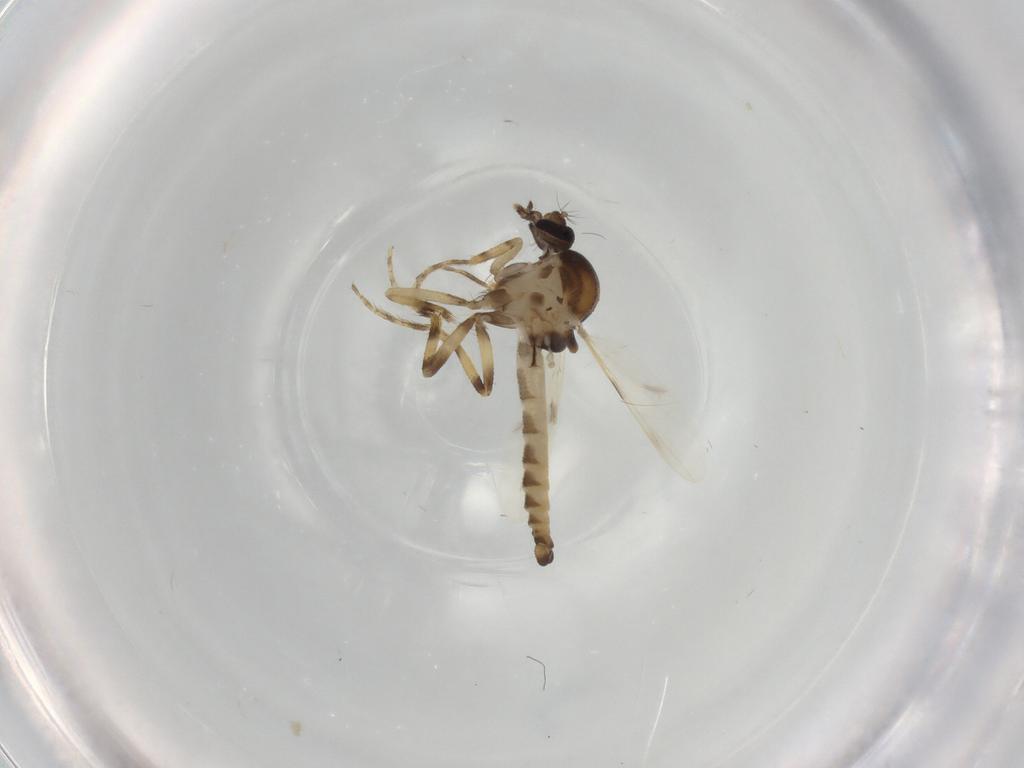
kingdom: Animalia
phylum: Arthropoda
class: Insecta
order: Diptera
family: Ceratopogonidae
